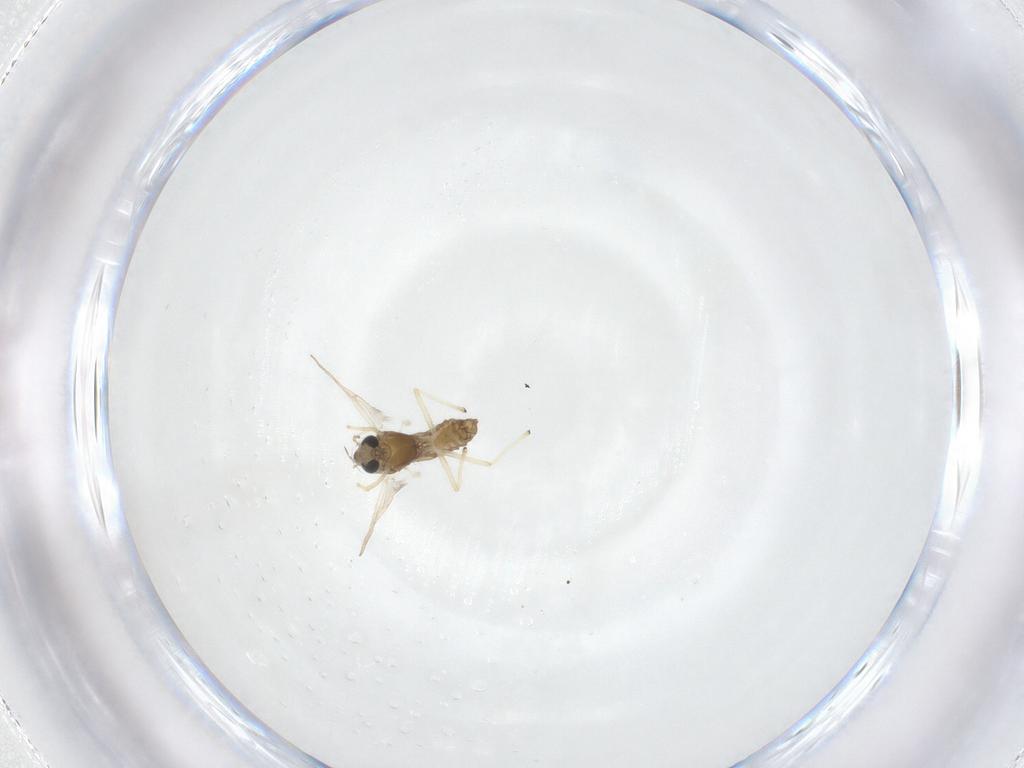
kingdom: Animalia
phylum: Arthropoda
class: Insecta
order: Diptera
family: Chironomidae
